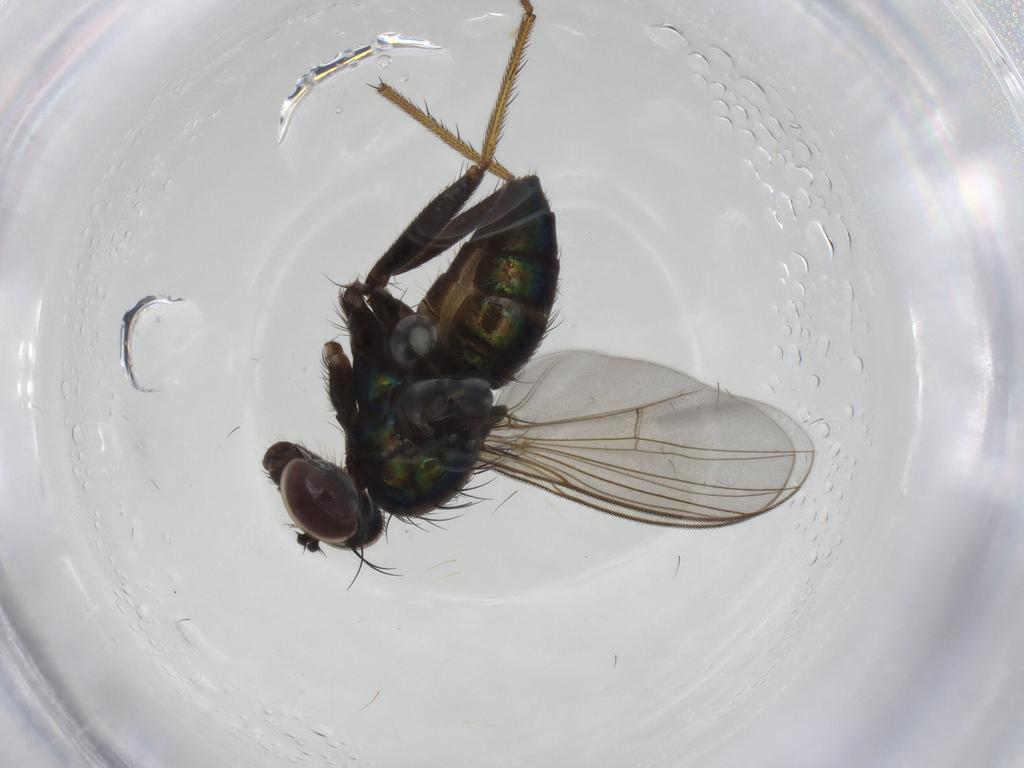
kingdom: Animalia
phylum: Arthropoda
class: Insecta
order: Diptera
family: Dolichopodidae
